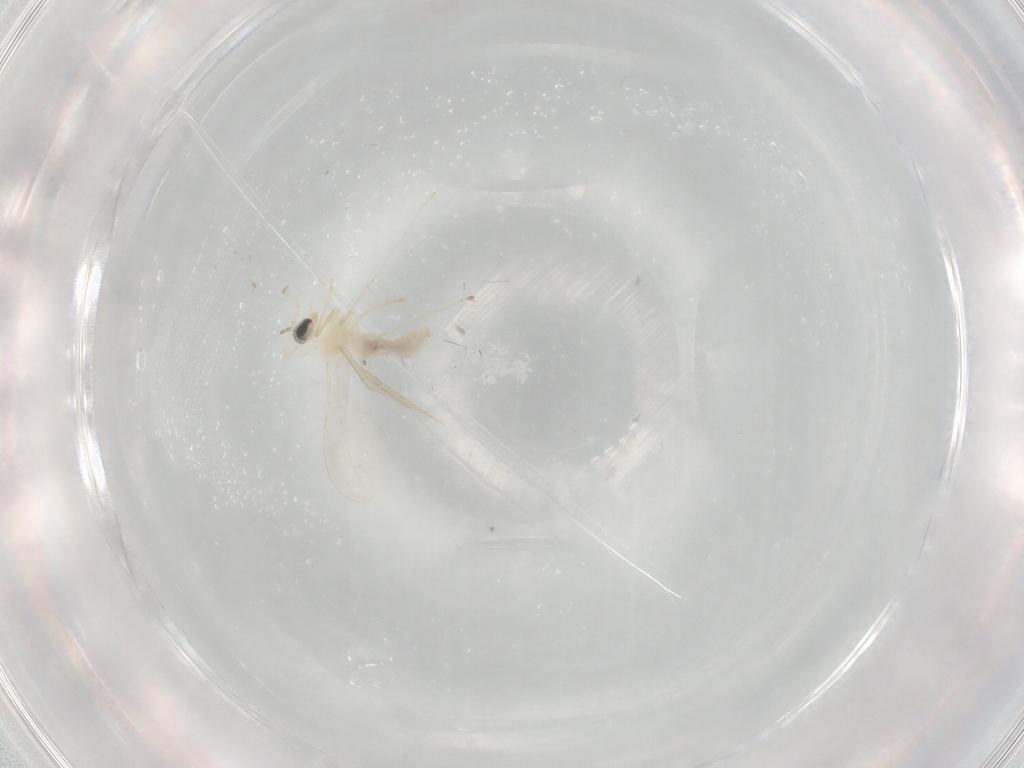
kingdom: Animalia
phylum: Arthropoda
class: Insecta
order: Diptera
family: Cecidomyiidae
